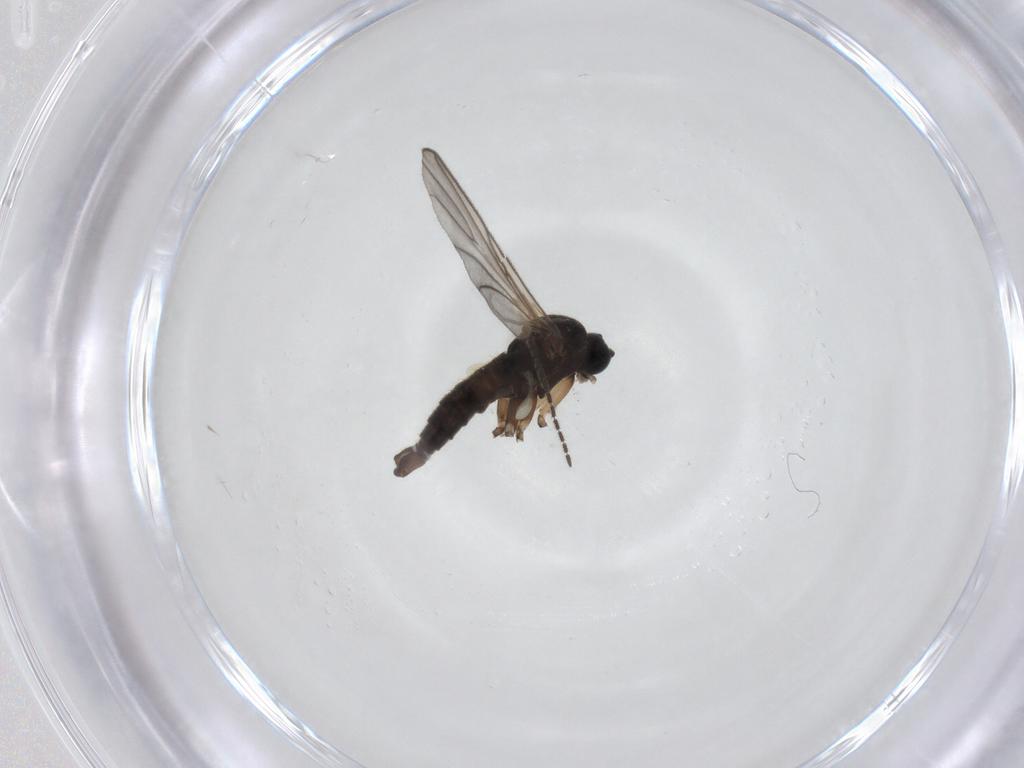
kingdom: Animalia
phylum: Arthropoda
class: Insecta
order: Diptera
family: Sciaridae
